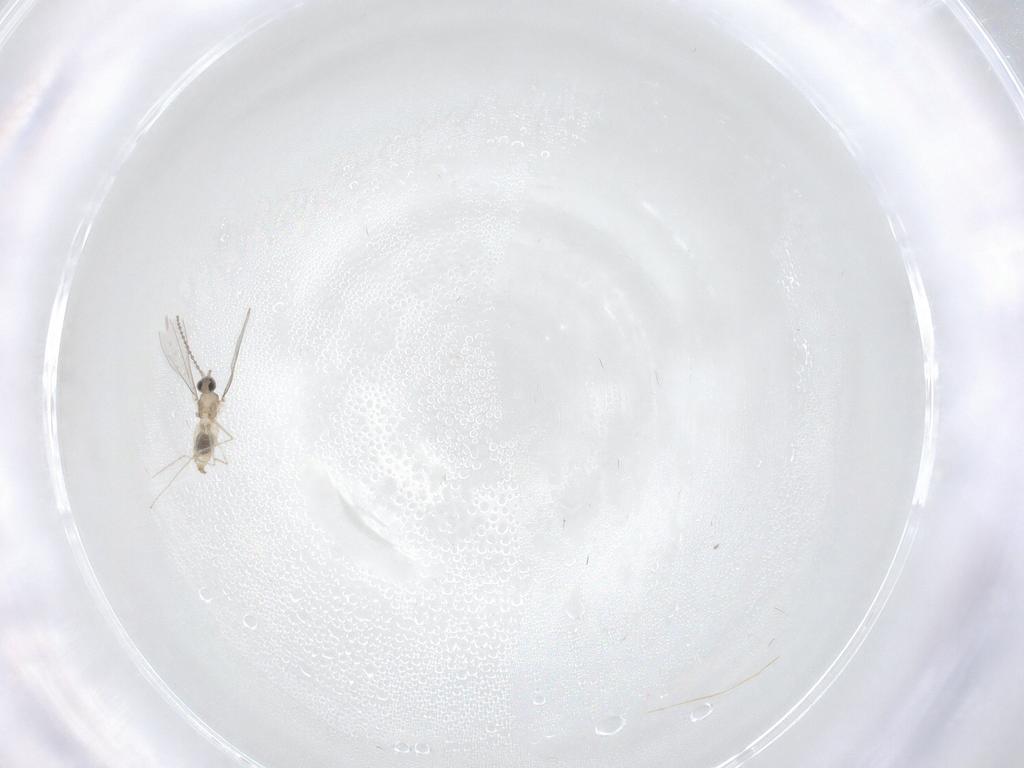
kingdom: Animalia
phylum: Arthropoda
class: Insecta
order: Diptera
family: Cecidomyiidae
